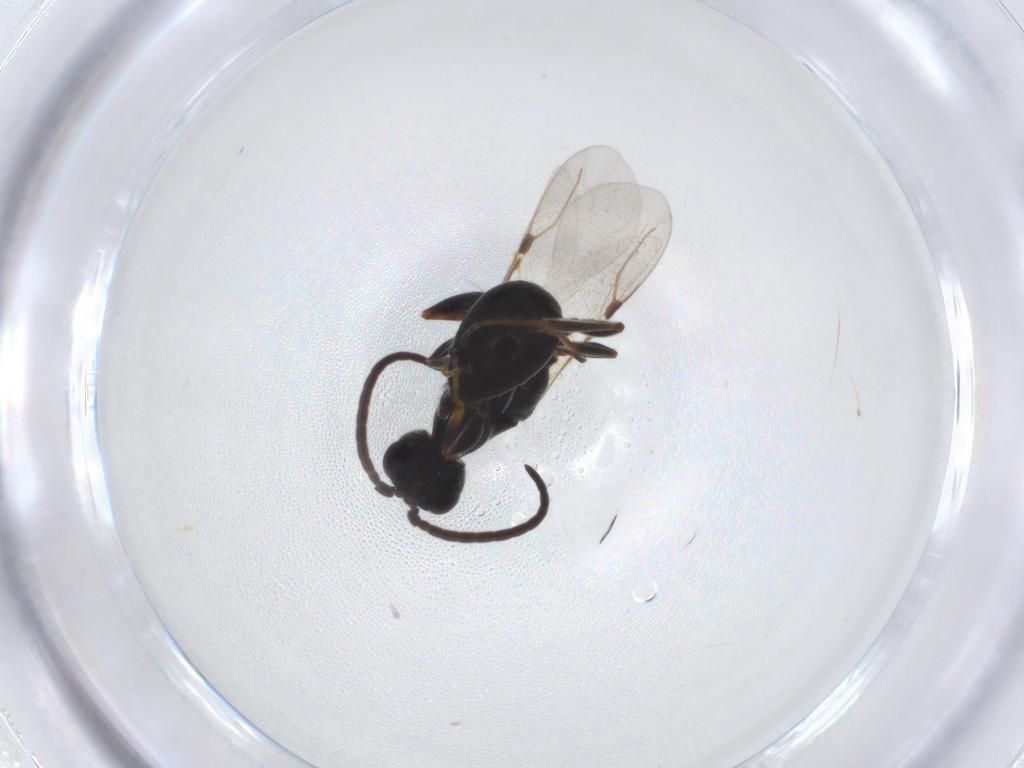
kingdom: Animalia
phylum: Arthropoda
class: Insecta
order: Hymenoptera
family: Bethylidae
